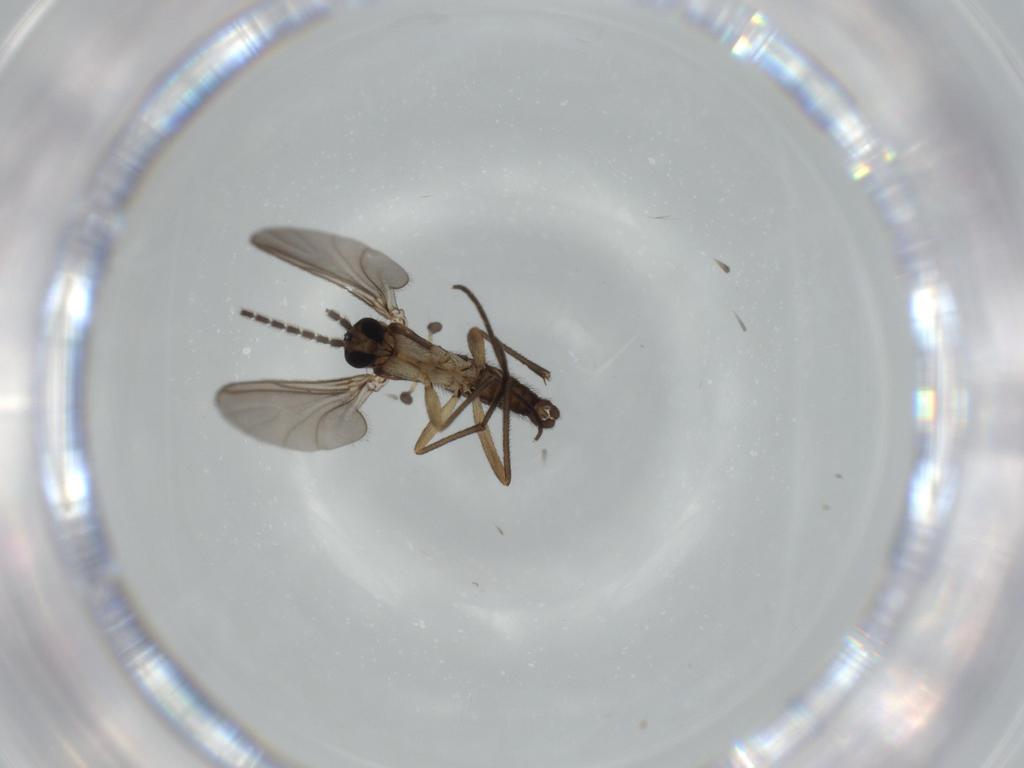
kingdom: Animalia
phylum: Arthropoda
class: Insecta
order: Diptera
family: Sciaridae
